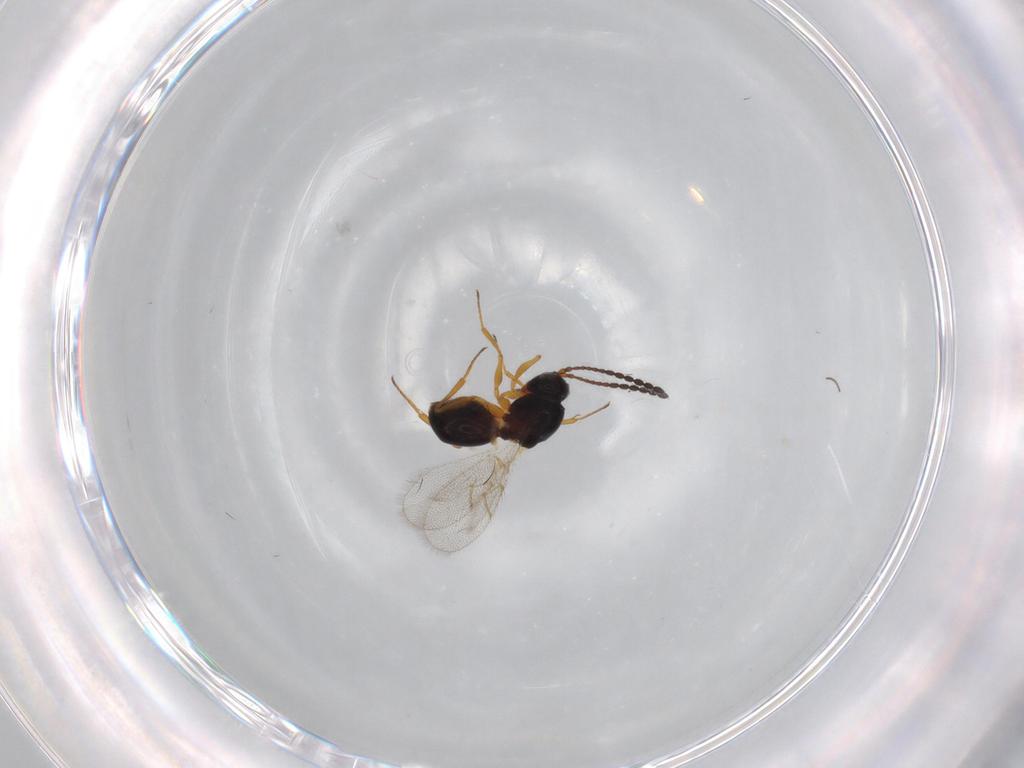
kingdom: Animalia
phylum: Arthropoda
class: Insecta
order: Hymenoptera
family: Figitidae
